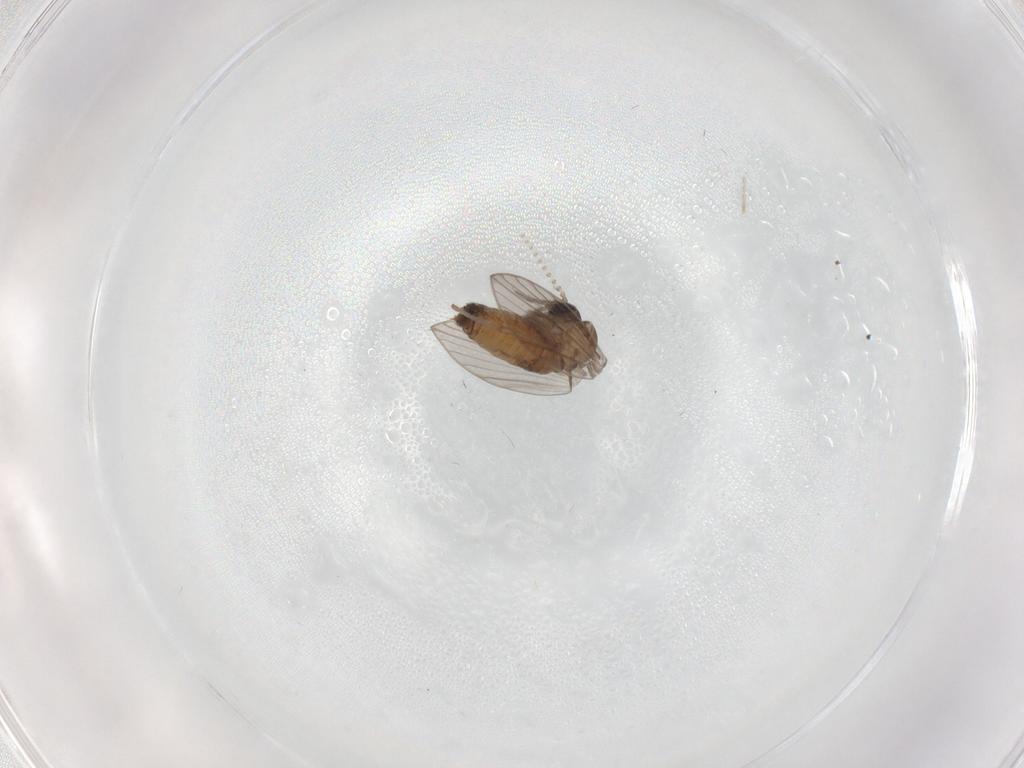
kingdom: Animalia
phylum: Arthropoda
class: Insecta
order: Diptera
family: Psychodidae
